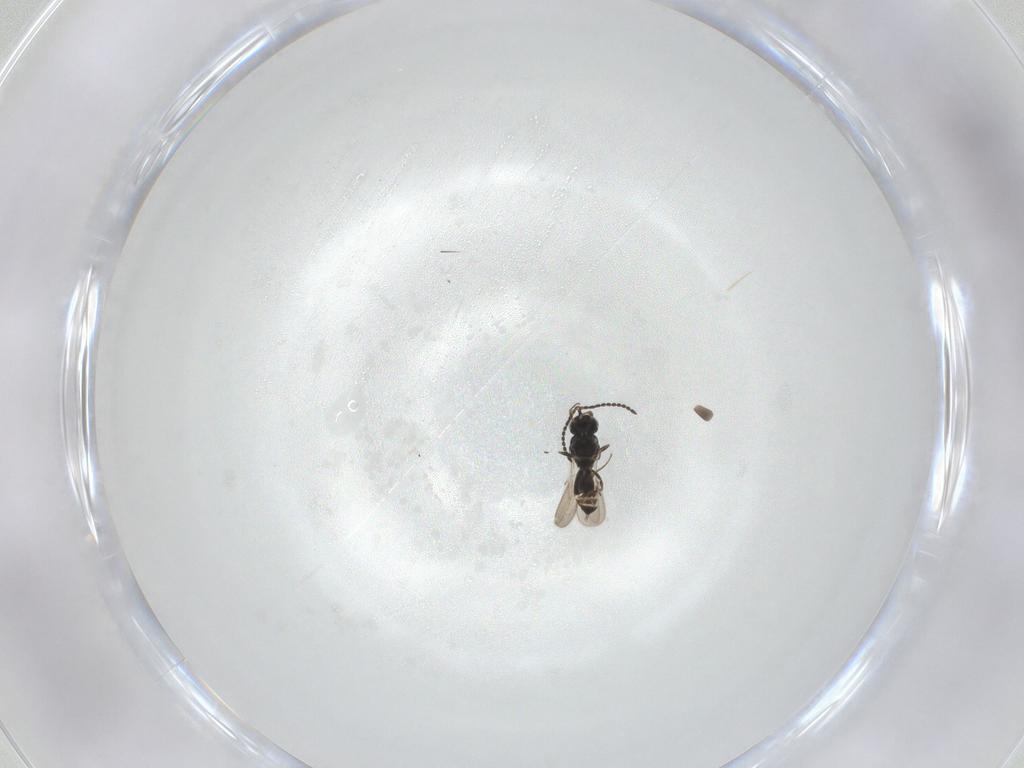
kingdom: Animalia
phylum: Arthropoda
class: Insecta
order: Hymenoptera
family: Scelionidae
